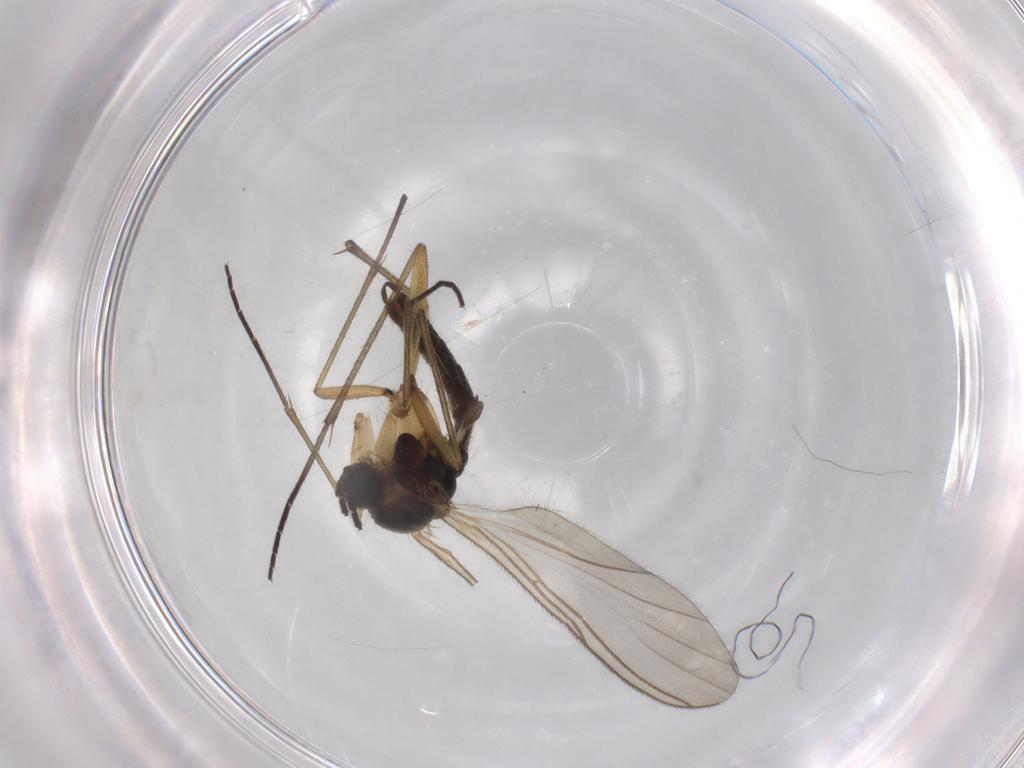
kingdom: Animalia
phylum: Arthropoda
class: Insecta
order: Diptera
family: Sciaridae
